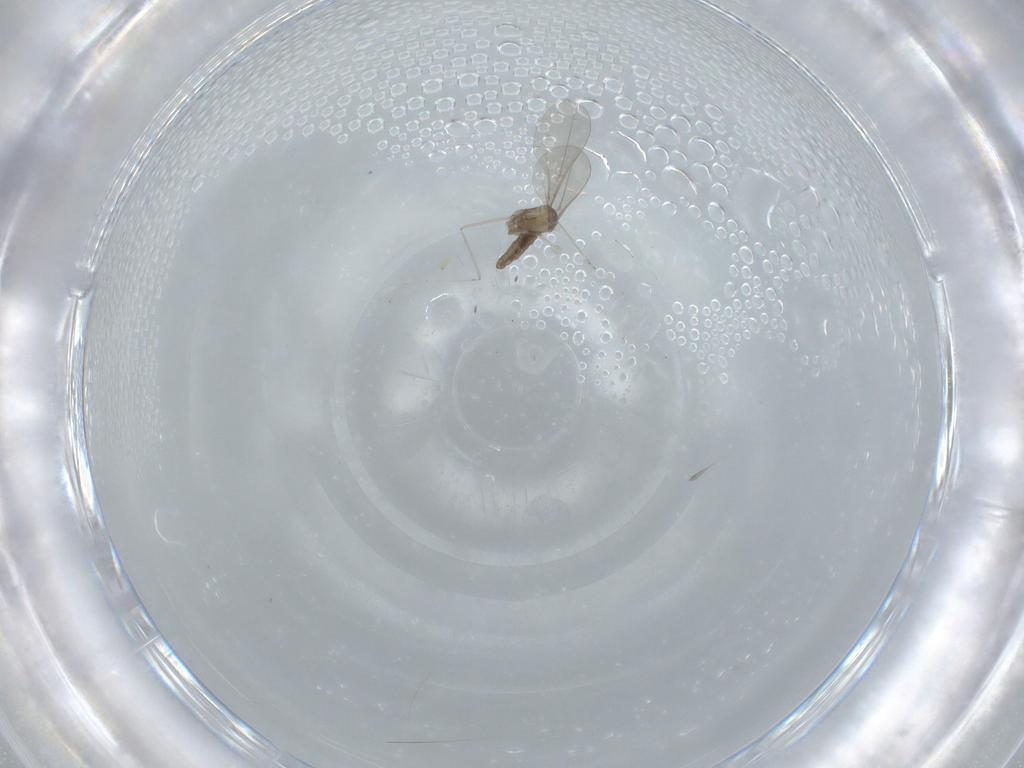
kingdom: Animalia
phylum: Arthropoda
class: Insecta
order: Diptera
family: Cecidomyiidae
